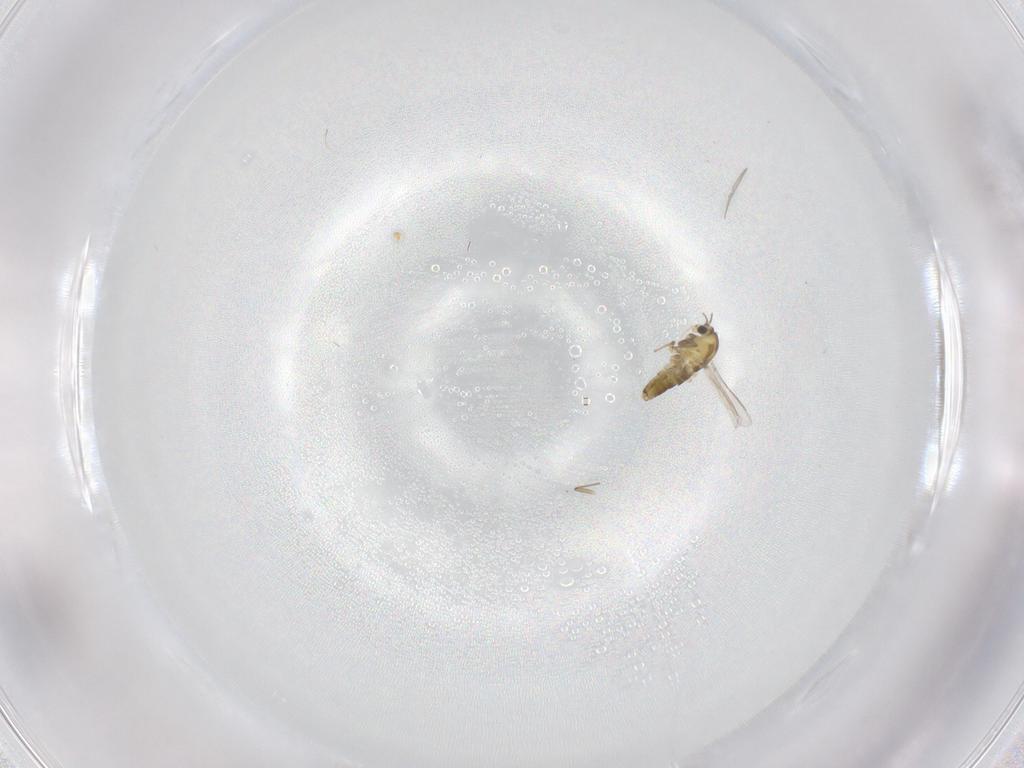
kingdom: Animalia
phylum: Arthropoda
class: Insecta
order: Diptera
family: Chironomidae
